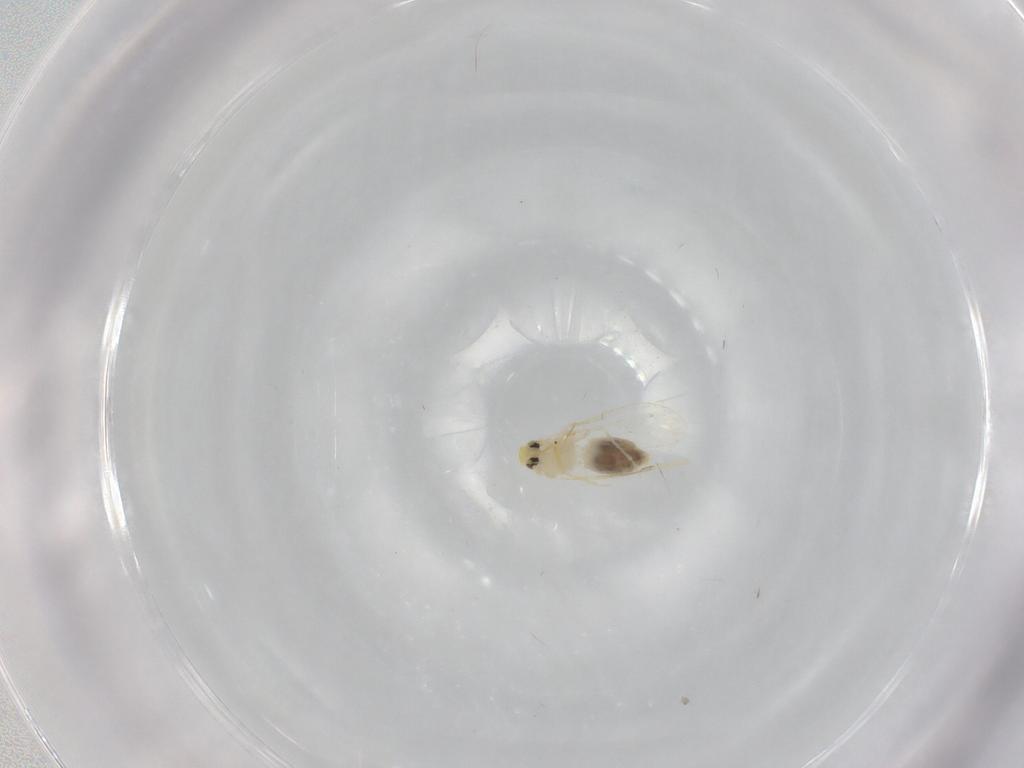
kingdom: Animalia
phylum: Arthropoda
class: Insecta
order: Hemiptera
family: Aleyrodidae
